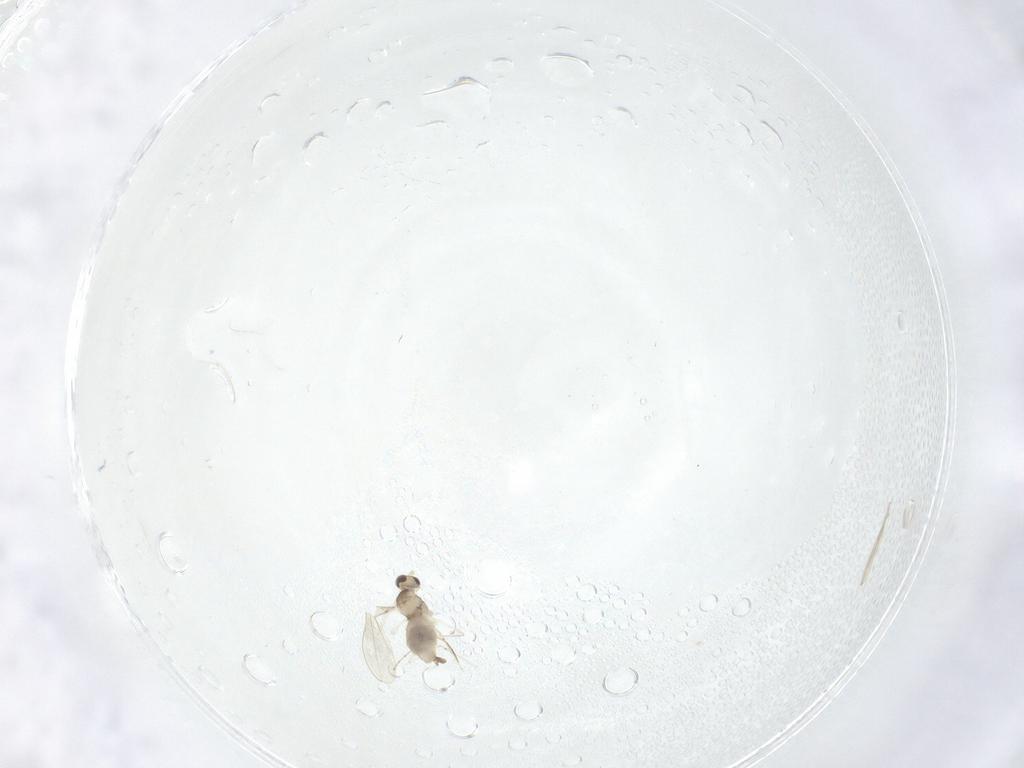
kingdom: Animalia
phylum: Arthropoda
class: Insecta
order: Diptera
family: Cecidomyiidae
